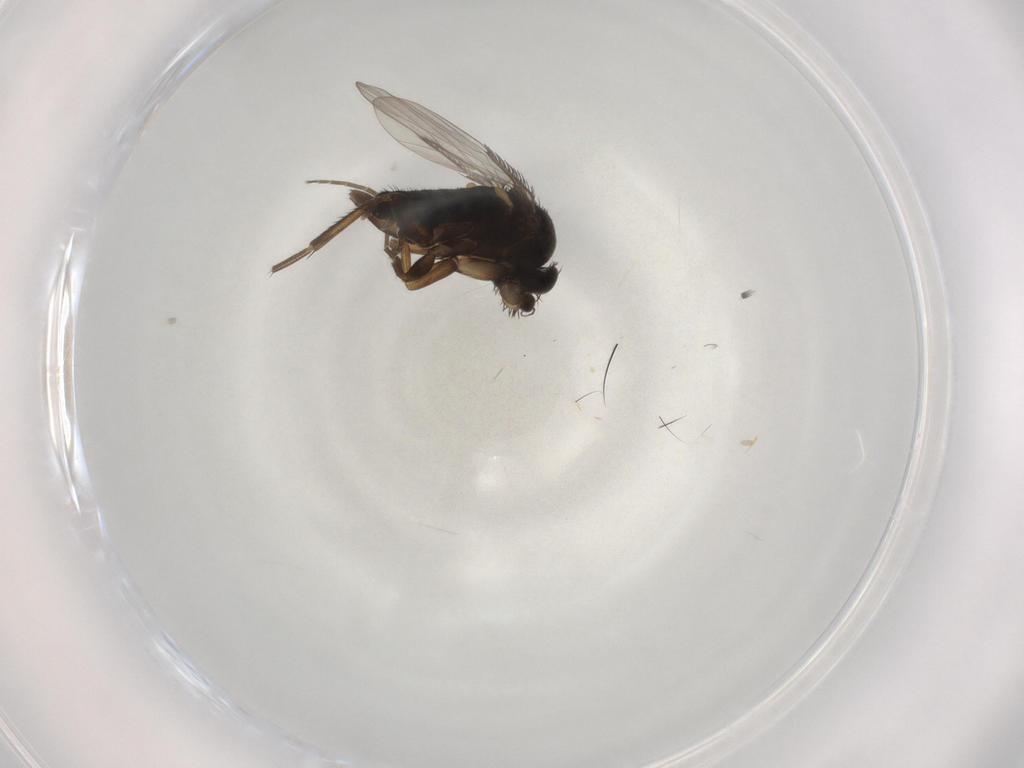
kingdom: Animalia
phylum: Arthropoda
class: Insecta
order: Diptera
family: Phoridae
